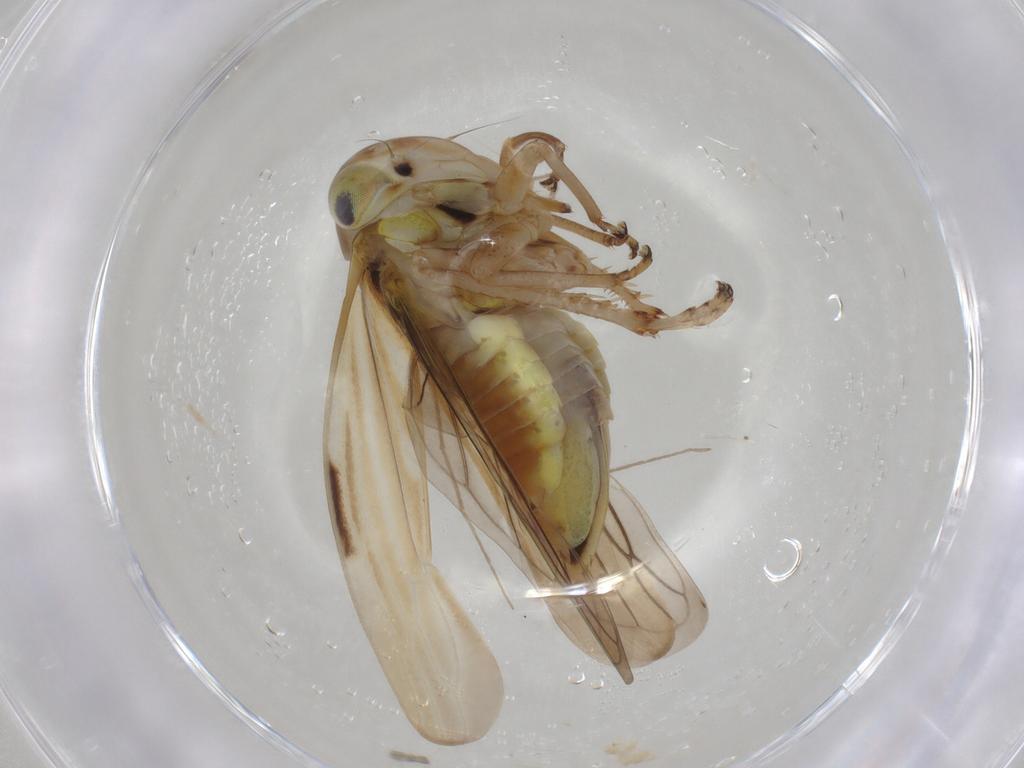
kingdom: Animalia
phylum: Arthropoda
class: Insecta
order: Hemiptera
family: Cicadellidae
